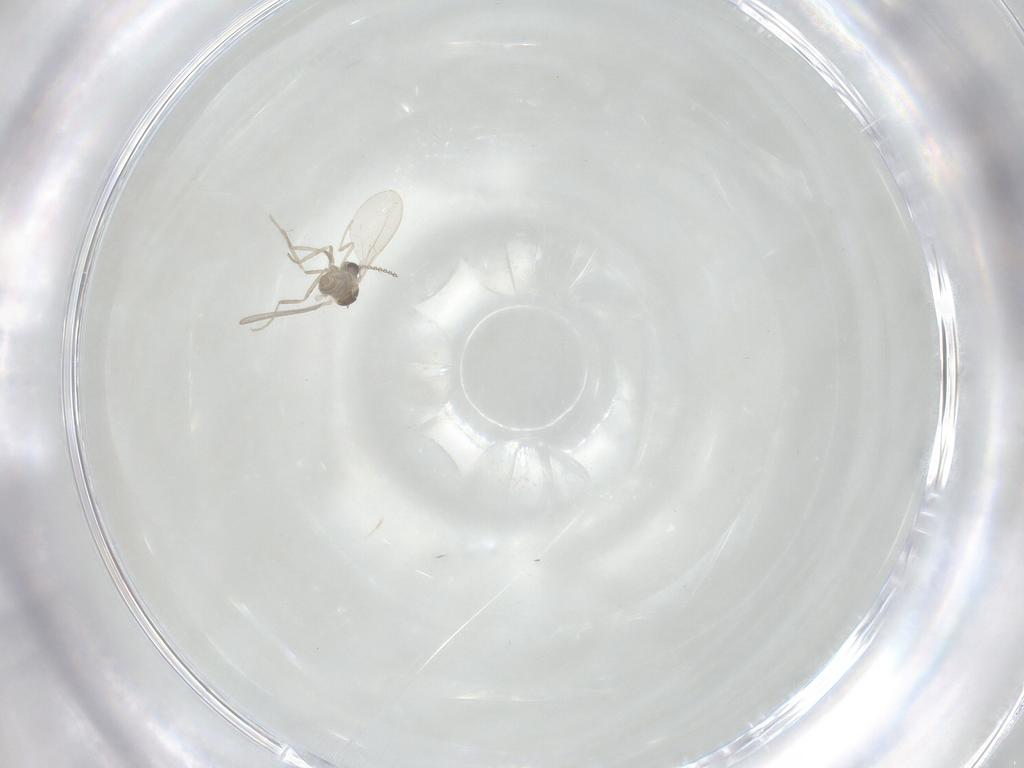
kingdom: Animalia
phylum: Arthropoda
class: Insecta
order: Diptera
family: Cecidomyiidae
